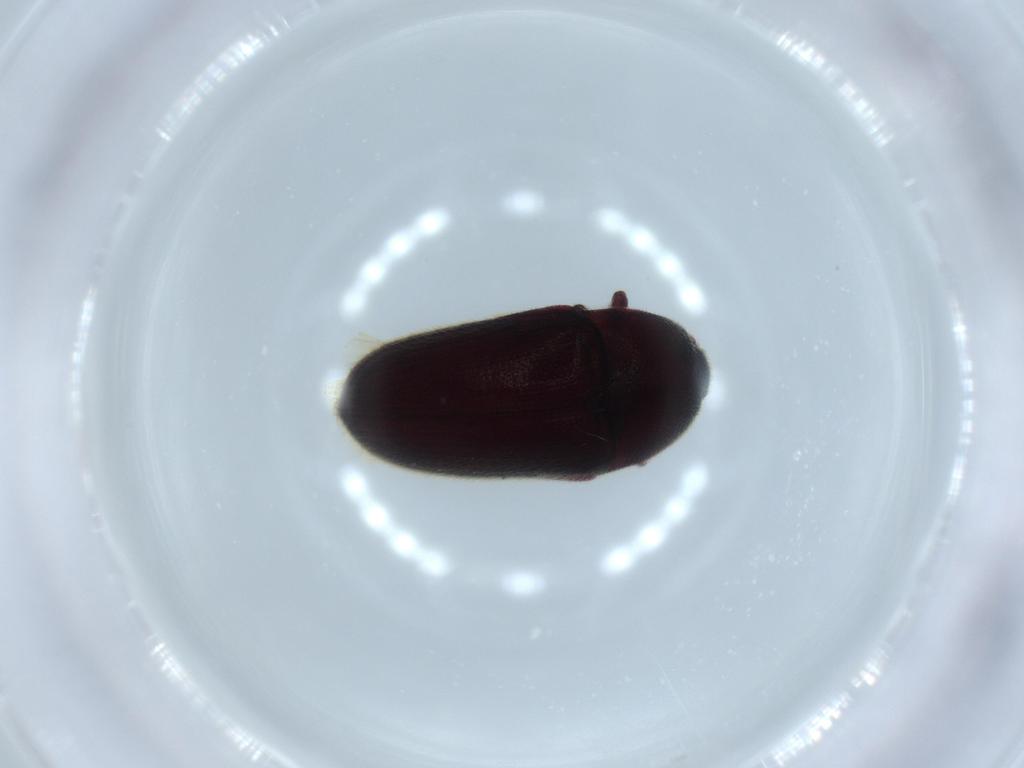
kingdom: Animalia
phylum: Arthropoda
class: Insecta
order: Coleoptera
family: Throscidae
